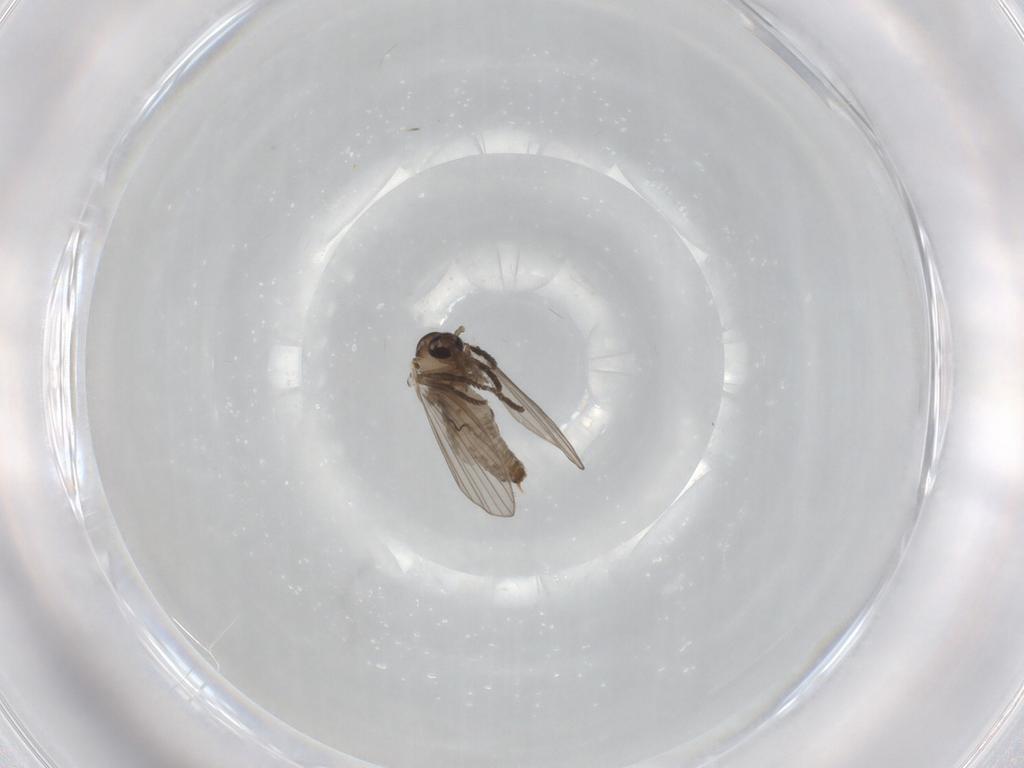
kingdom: Animalia
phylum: Arthropoda
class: Insecta
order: Diptera
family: Psychodidae
